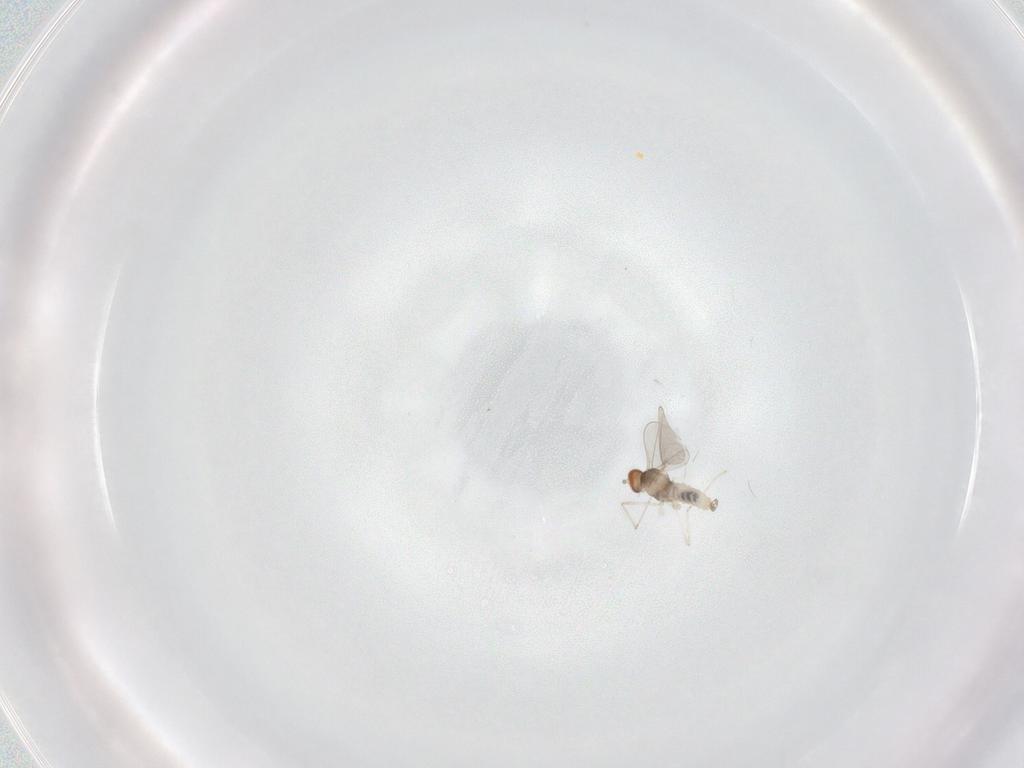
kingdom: Animalia
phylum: Arthropoda
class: Insecta
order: Diptera
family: Cecidomyiidae
